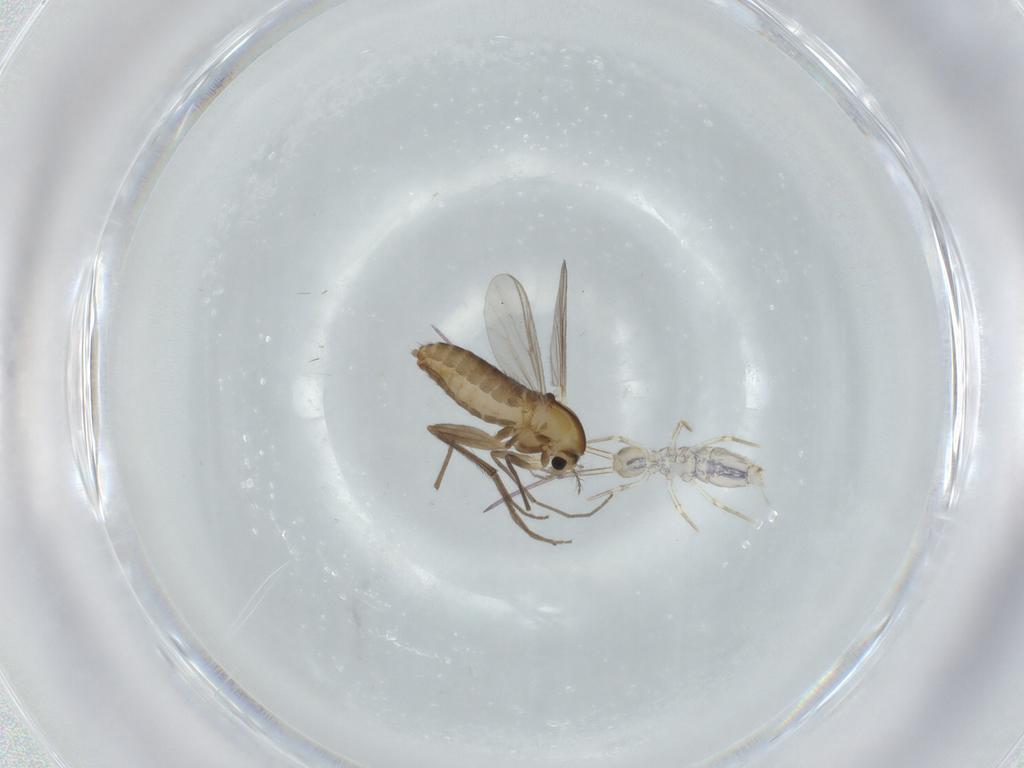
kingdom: Animalia
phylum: Arthropoda
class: Insecta
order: Diptera
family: Chironomidae
